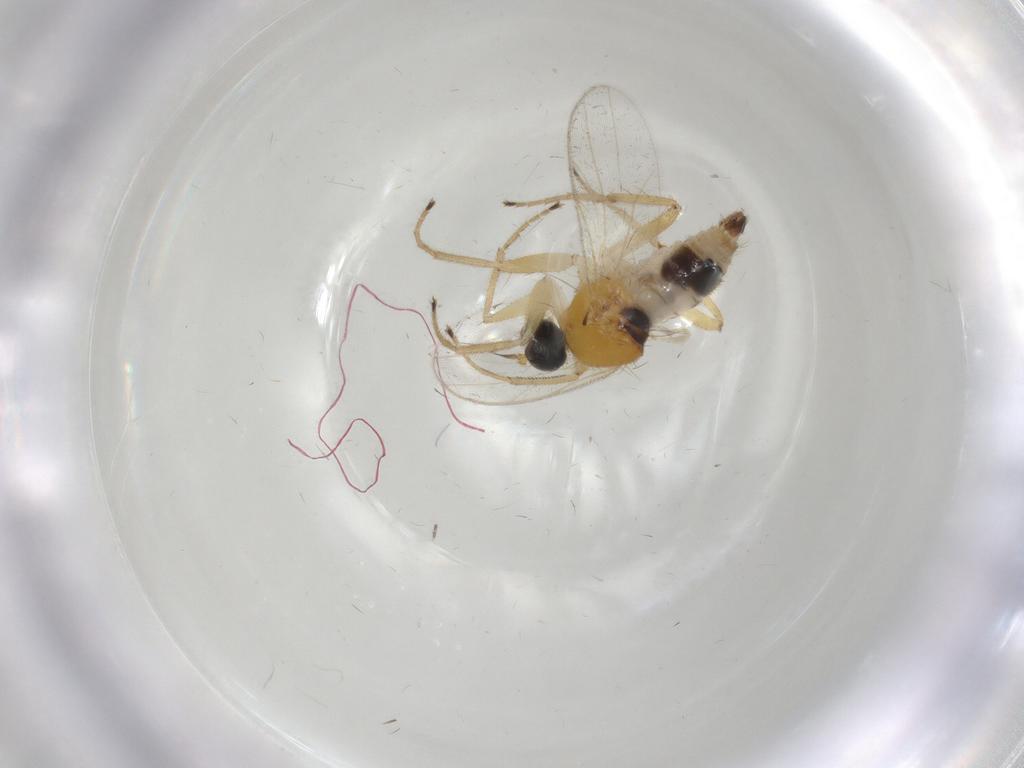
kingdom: Animalia
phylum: Arthropoda
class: Insecta
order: Diptera
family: Hybotidae
